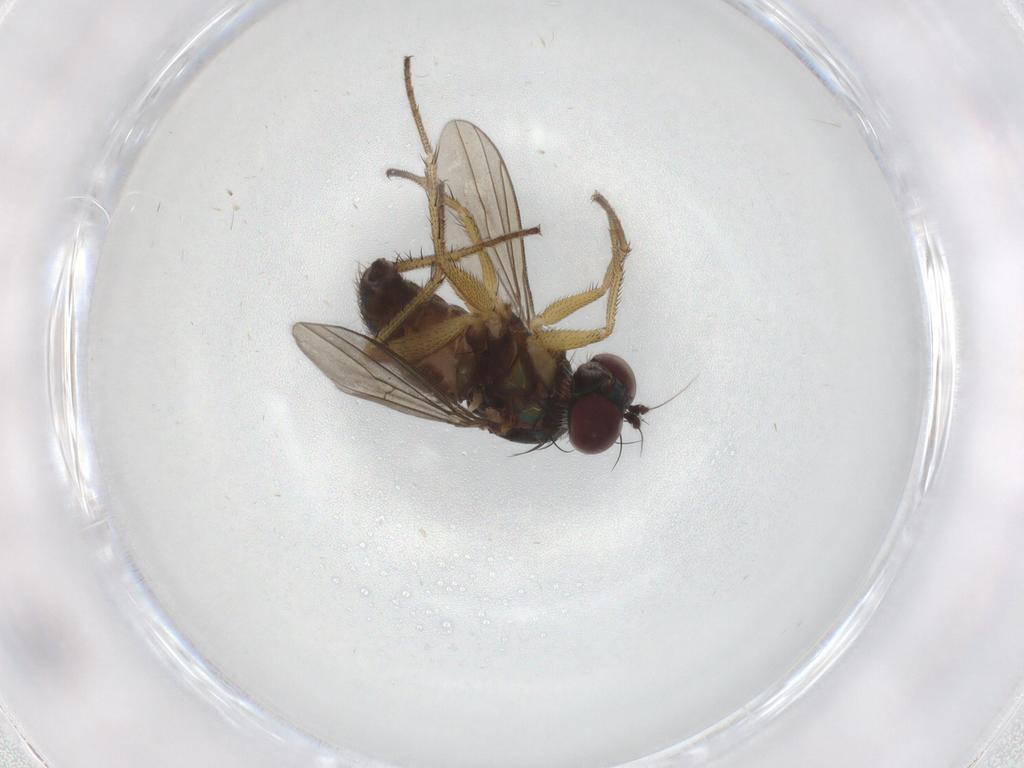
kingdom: Animalia
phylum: Arthropoda
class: Insecta
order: Diptera
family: Dolichopodidae
